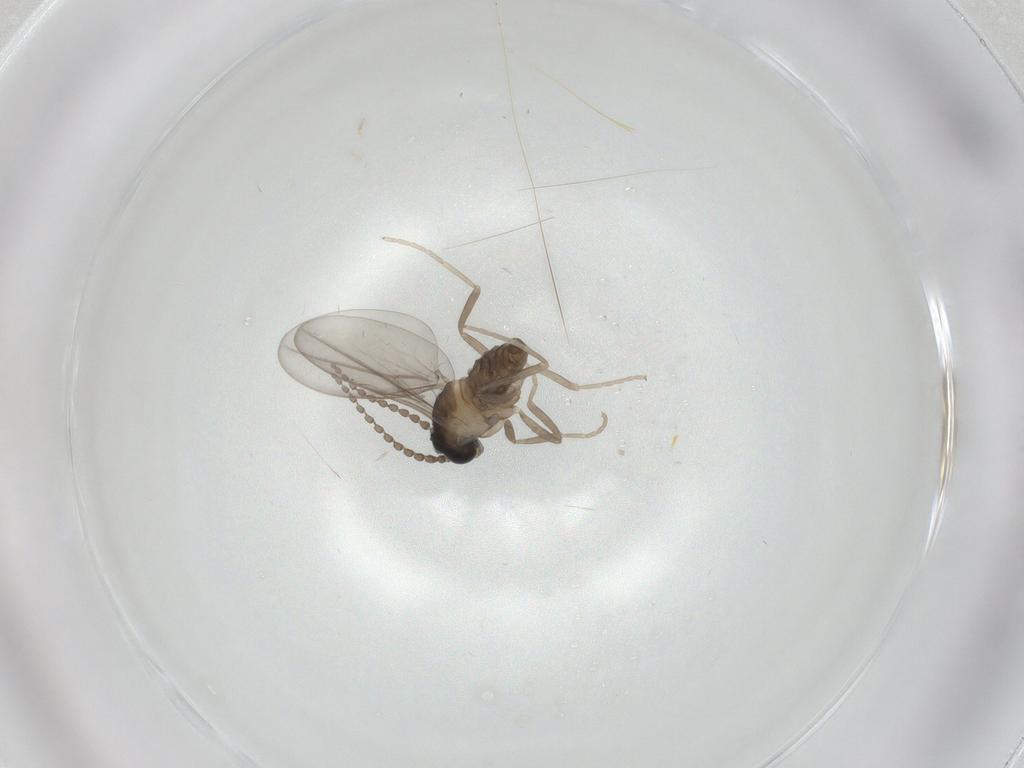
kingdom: Animalia
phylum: Arthropoda
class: Insecta
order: Diptera
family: Cecidomyiidae
